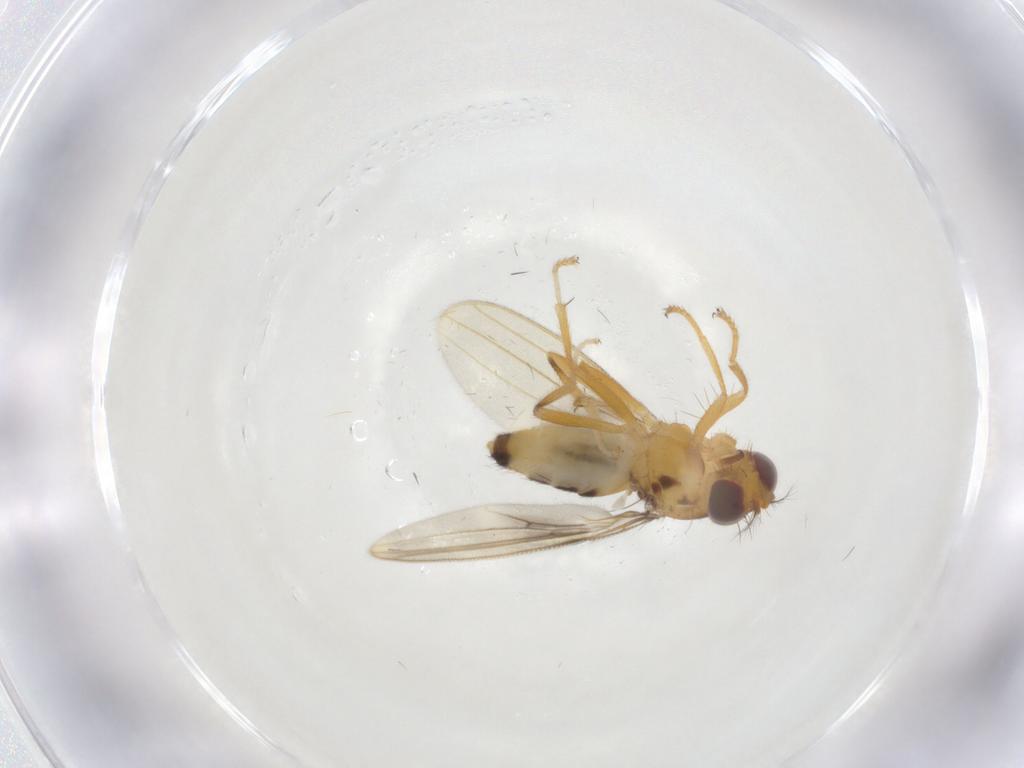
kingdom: Animalia
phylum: Arthropoda
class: Insecta
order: Diptera
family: Periscelididae
